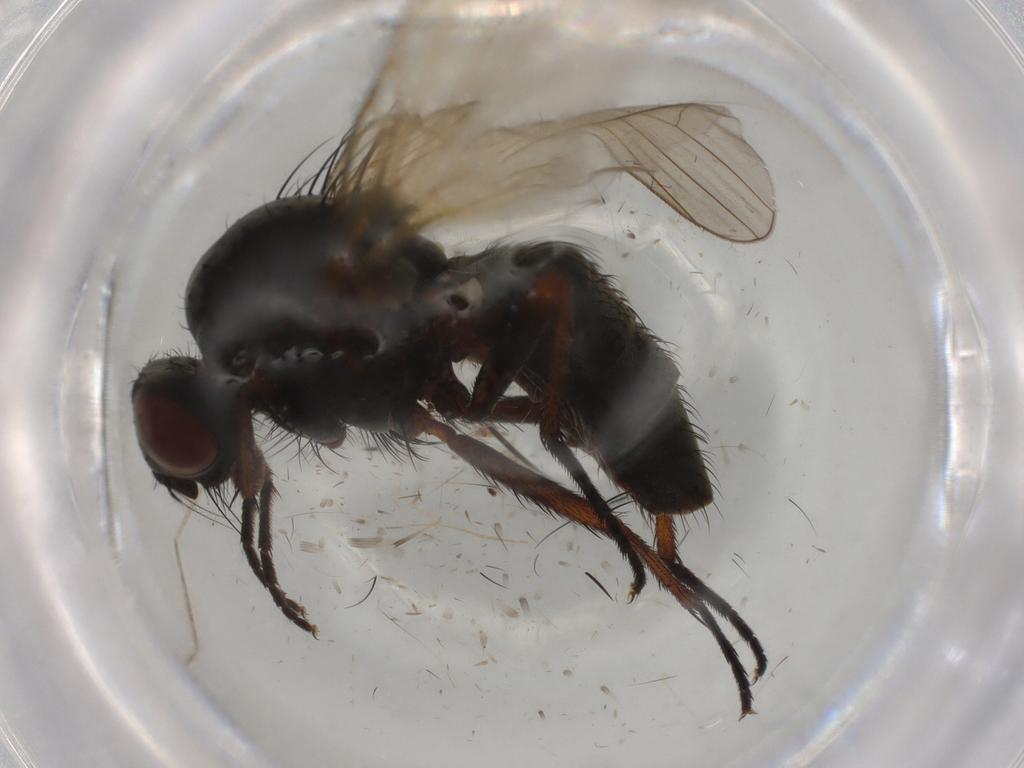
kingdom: Animalia
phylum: Arthropoda
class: Insecta
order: Diptera
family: Anthomyiidae
